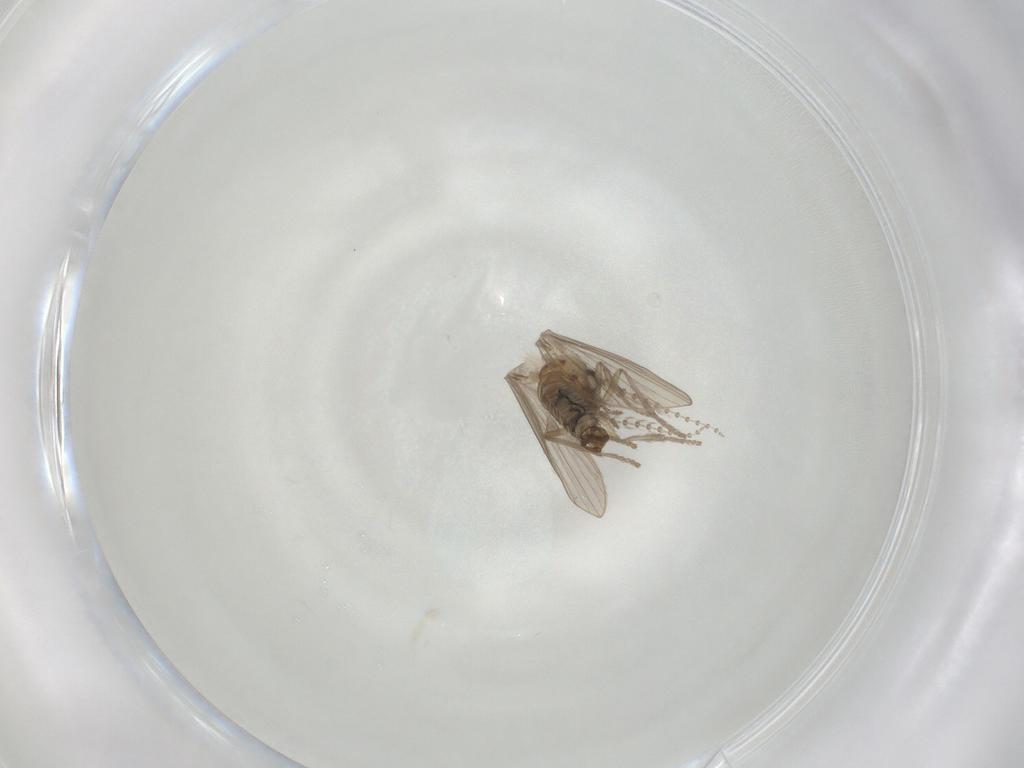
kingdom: Animalia
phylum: Arthropoda
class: Insecta
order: Diptera
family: Psychodidae
